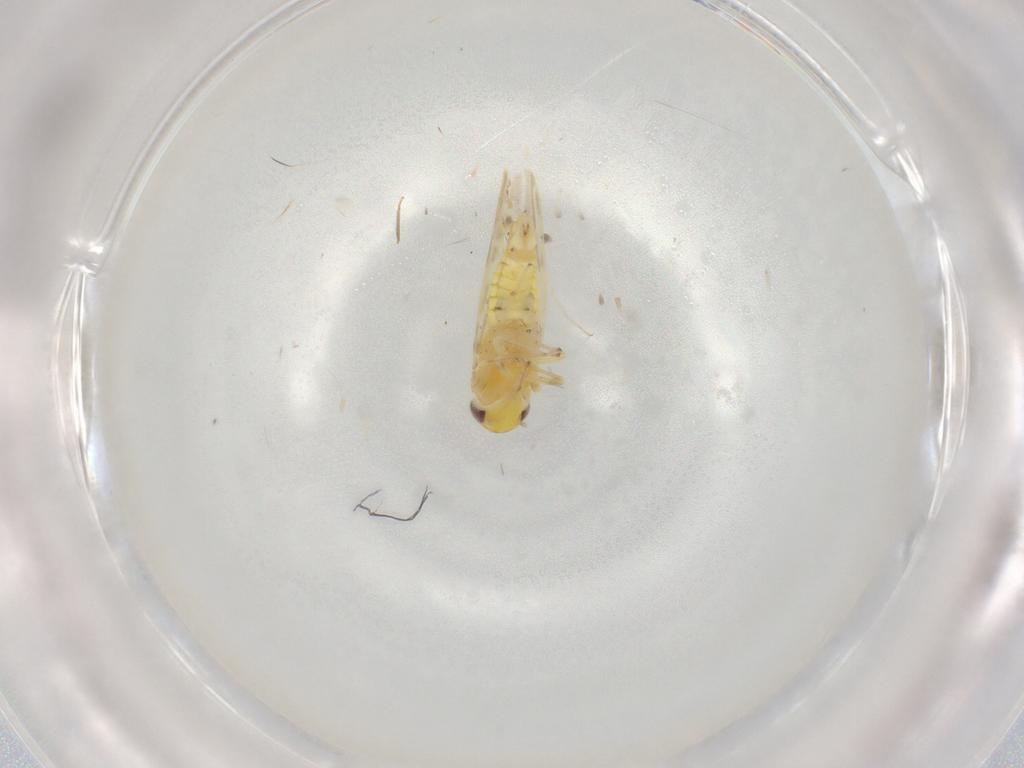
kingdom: Animalia
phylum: Arthropoda
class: Insecta
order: Hemiptera
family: Cicadellidae
